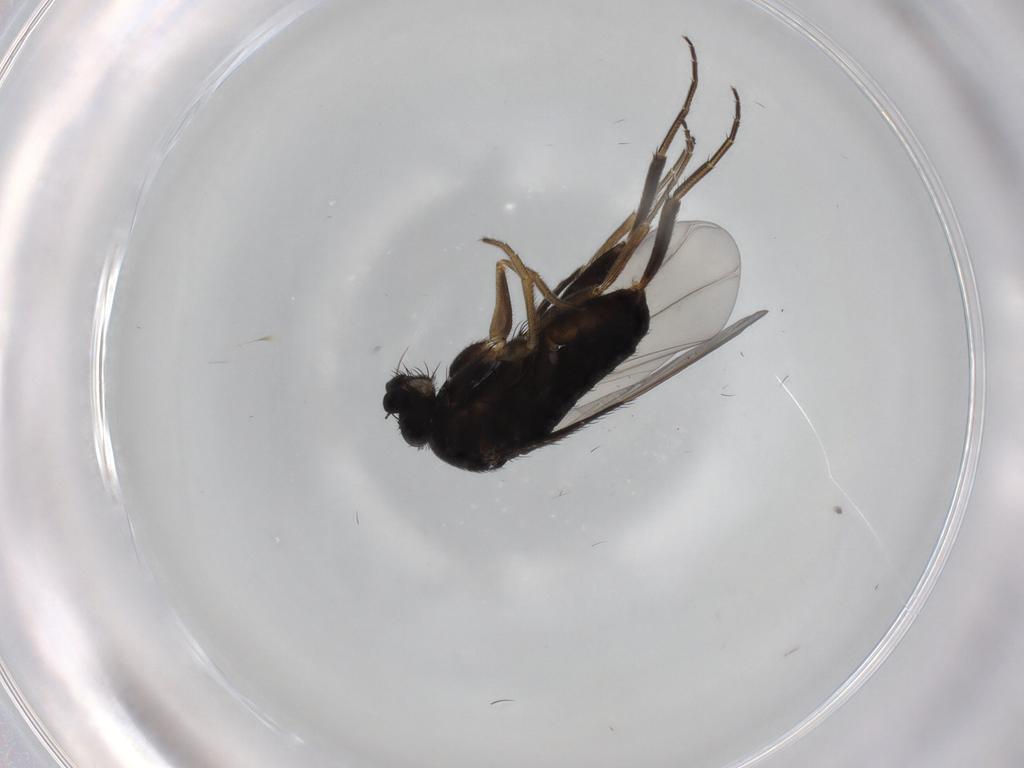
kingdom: Animalia
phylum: Arthropoda
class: Insecta
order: Diptera
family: Phoridae
